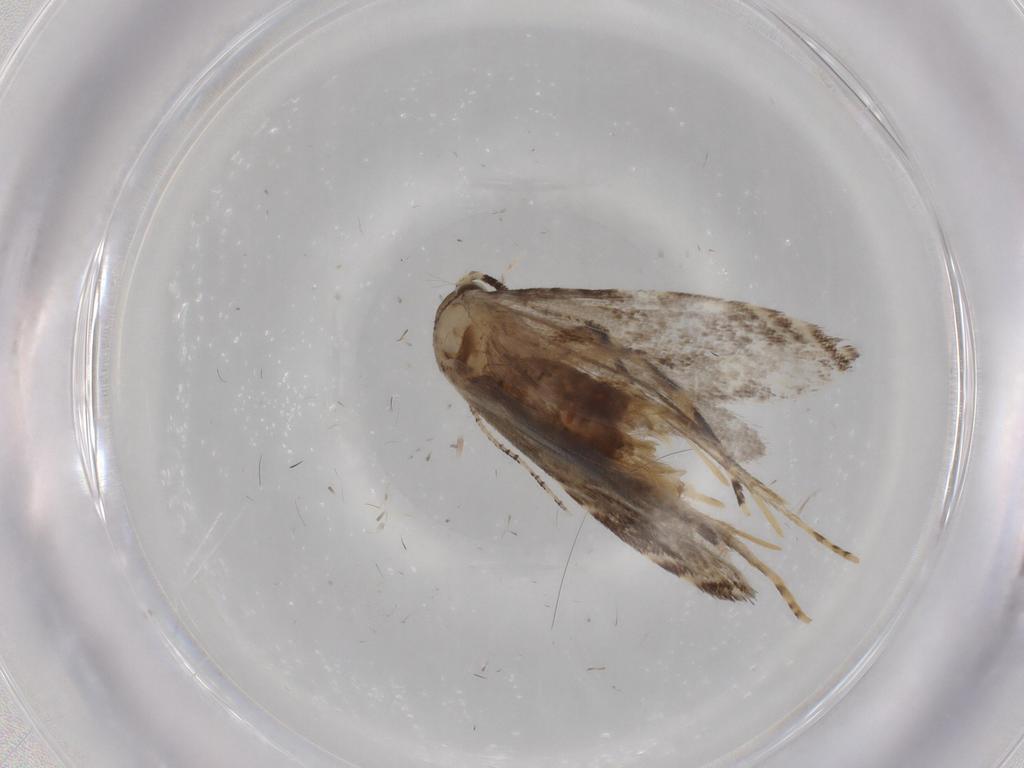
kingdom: Animalia
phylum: Arthropoda
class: Insecta
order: Lepidoptera
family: Tineidae
